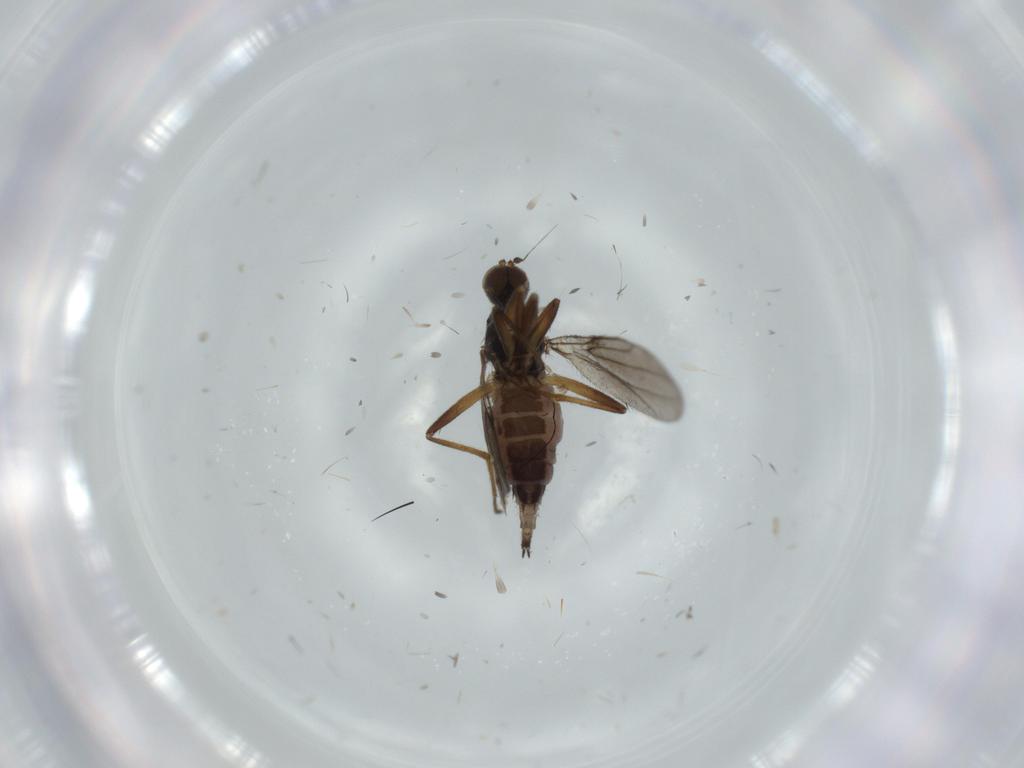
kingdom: Animalia
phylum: Arthropoda
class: Insecta
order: Diptera
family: Hybotidae
